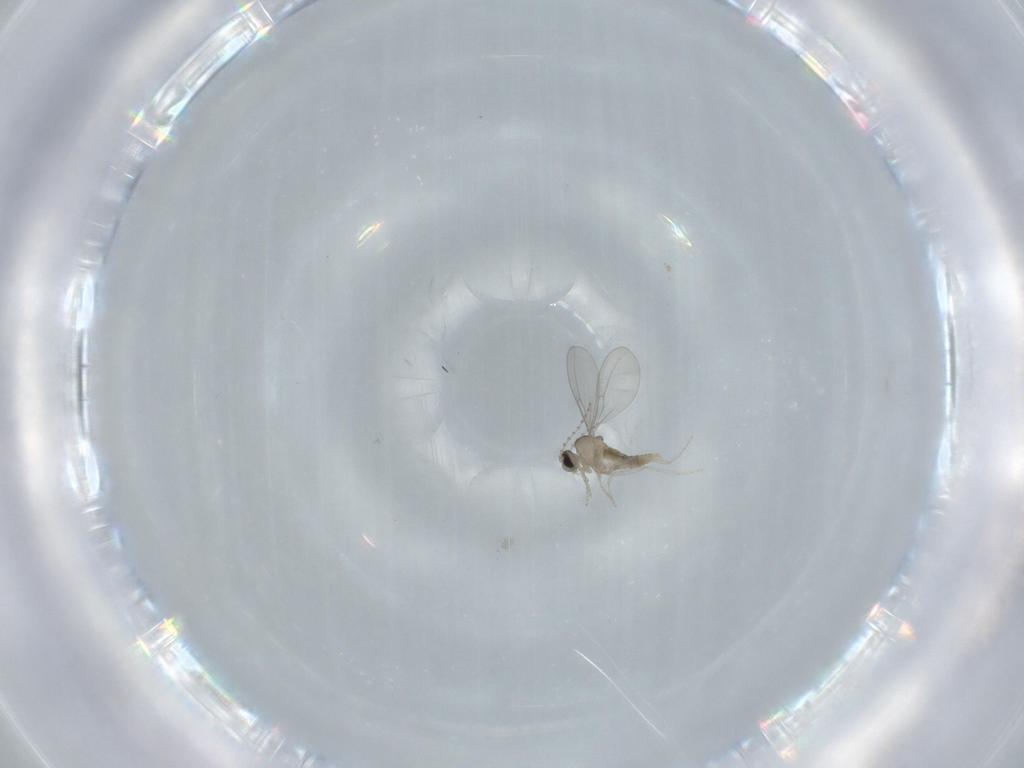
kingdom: Animalia
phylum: Arthropoda
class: Insecta
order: Diptera
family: Cecidomyiidae
